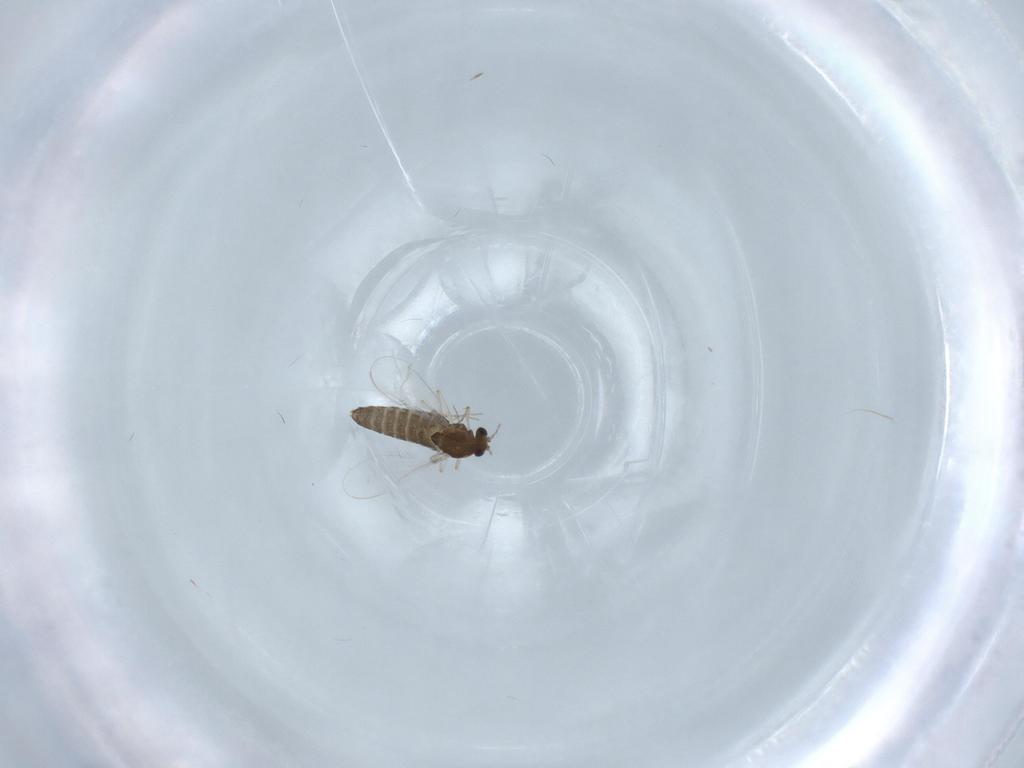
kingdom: Animalia
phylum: Arthropoda
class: Insecta
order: Diptera
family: Chironomidae
